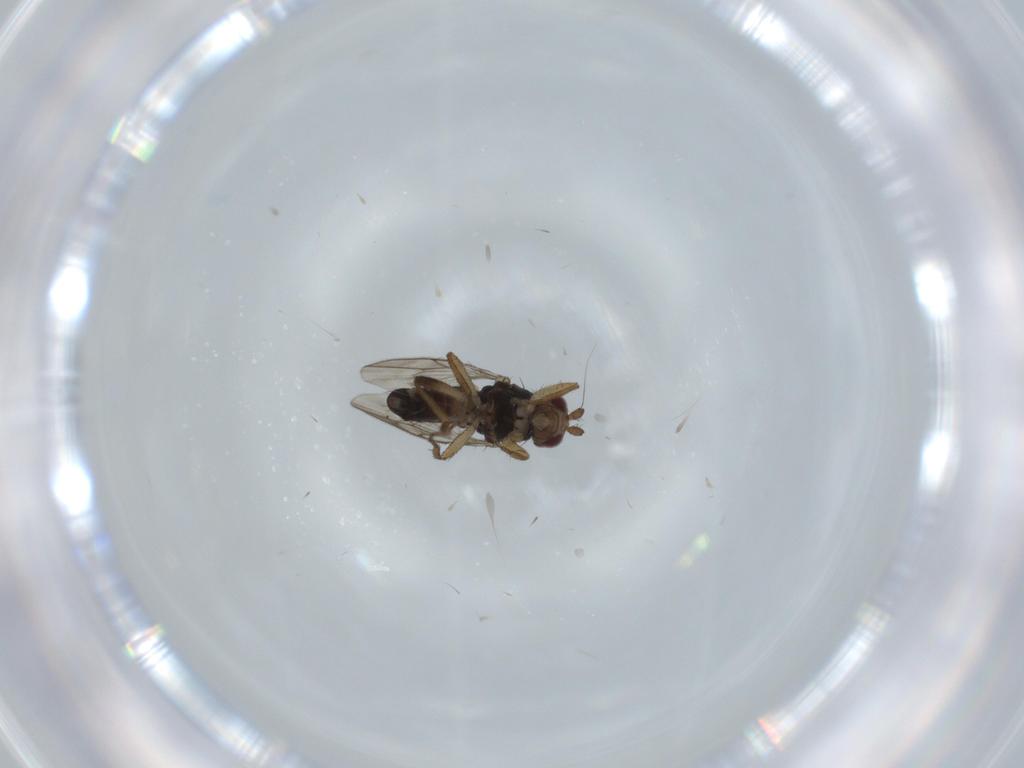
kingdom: Animalia
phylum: Arthropoda
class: Insecta
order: Diptera
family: Sphaeroceridae
